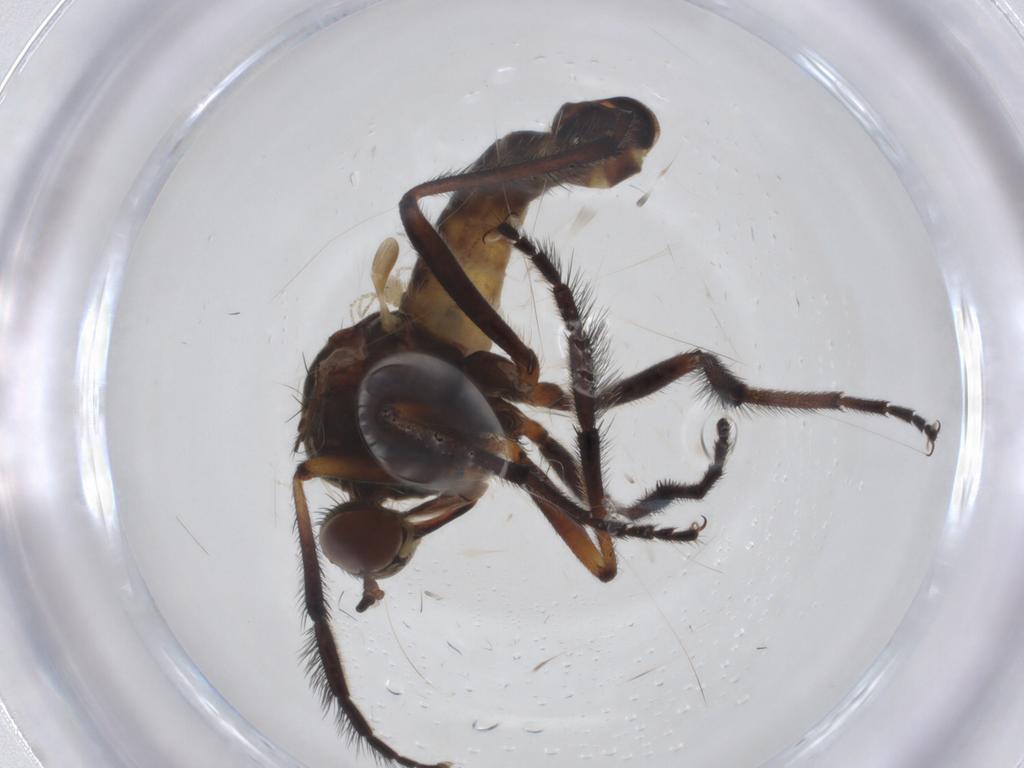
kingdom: Animalia
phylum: Arthropoda
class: Insecta
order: Diptera
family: Empididae
